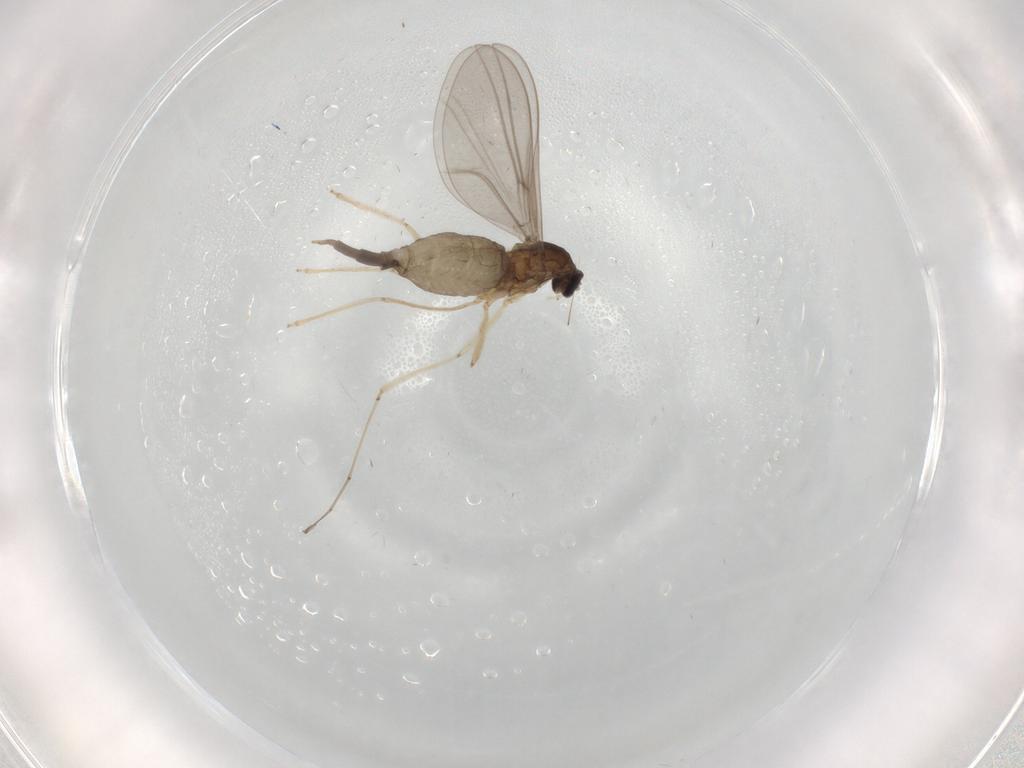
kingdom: Animalia
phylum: Arthropoda
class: Insecta
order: Diptera
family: Cecidomyiidae
